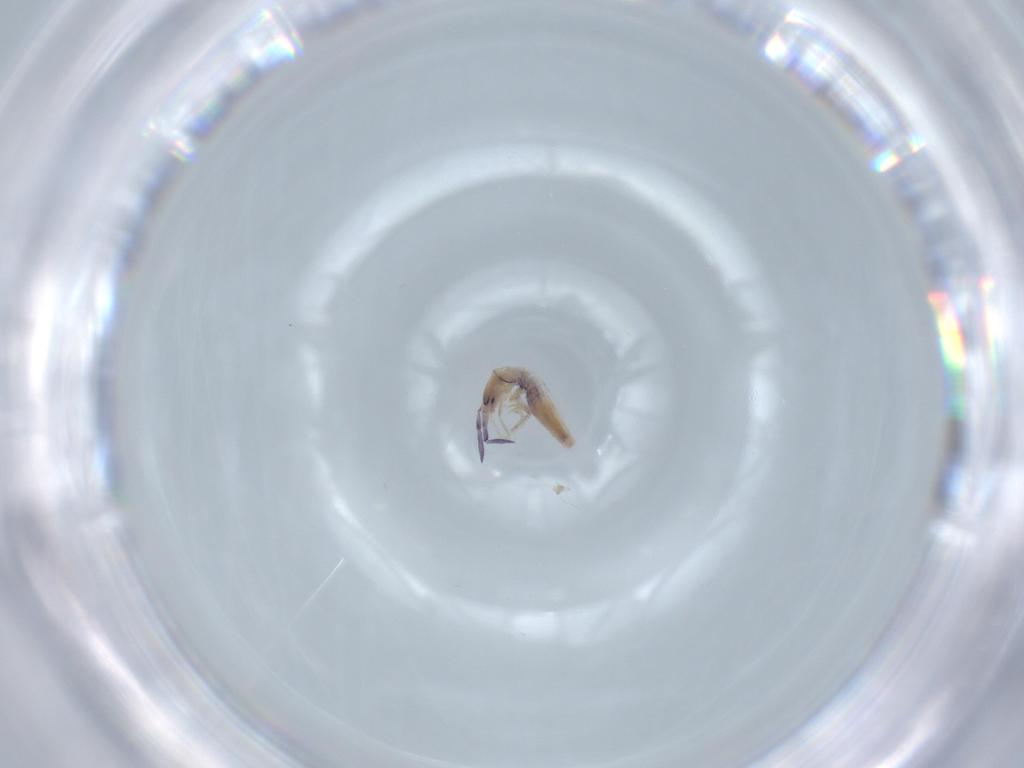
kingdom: Animalia
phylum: Arthropoda
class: Collembola
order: Poduromorpha
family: Hypogastruridae
